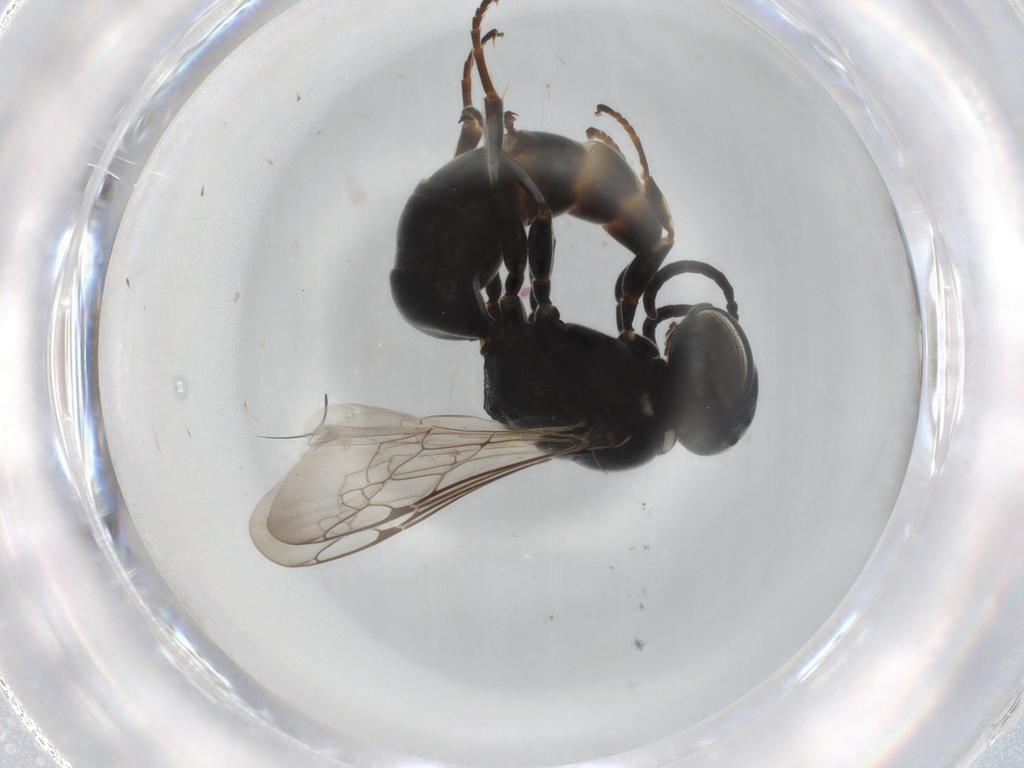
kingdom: Animalia
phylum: Arthropoda
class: Insecta
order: Hymenoptera
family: Crabronidae
